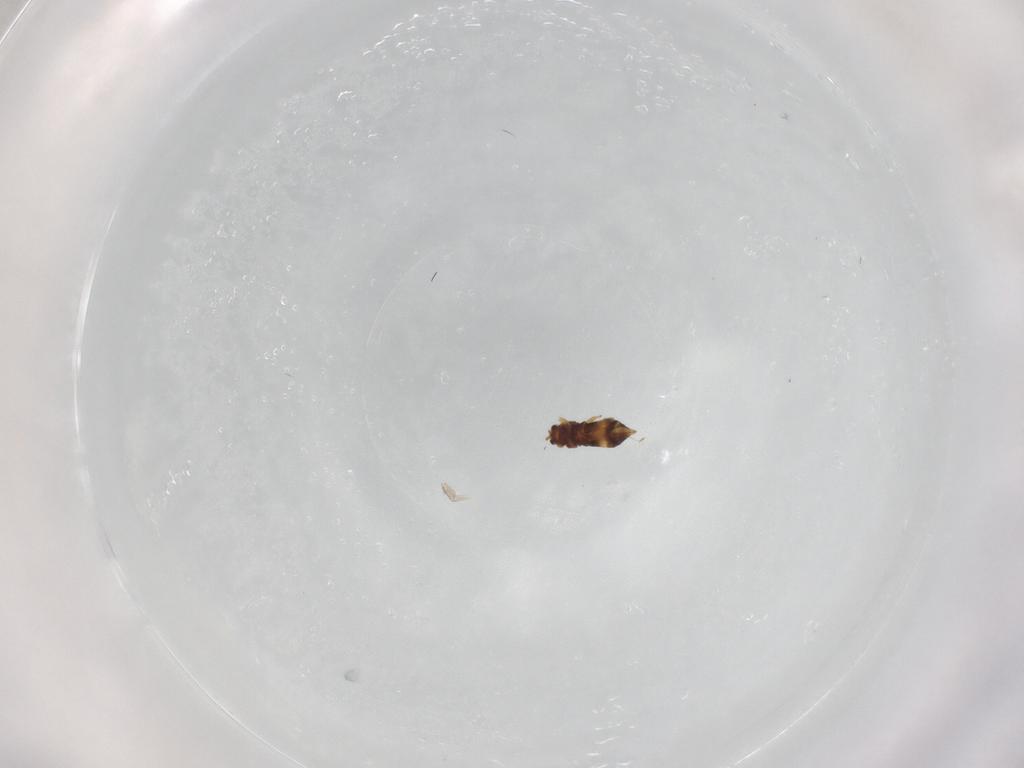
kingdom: Animalia
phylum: Arthropoda
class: Insecta
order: Thysanoptera
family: Thripidae
